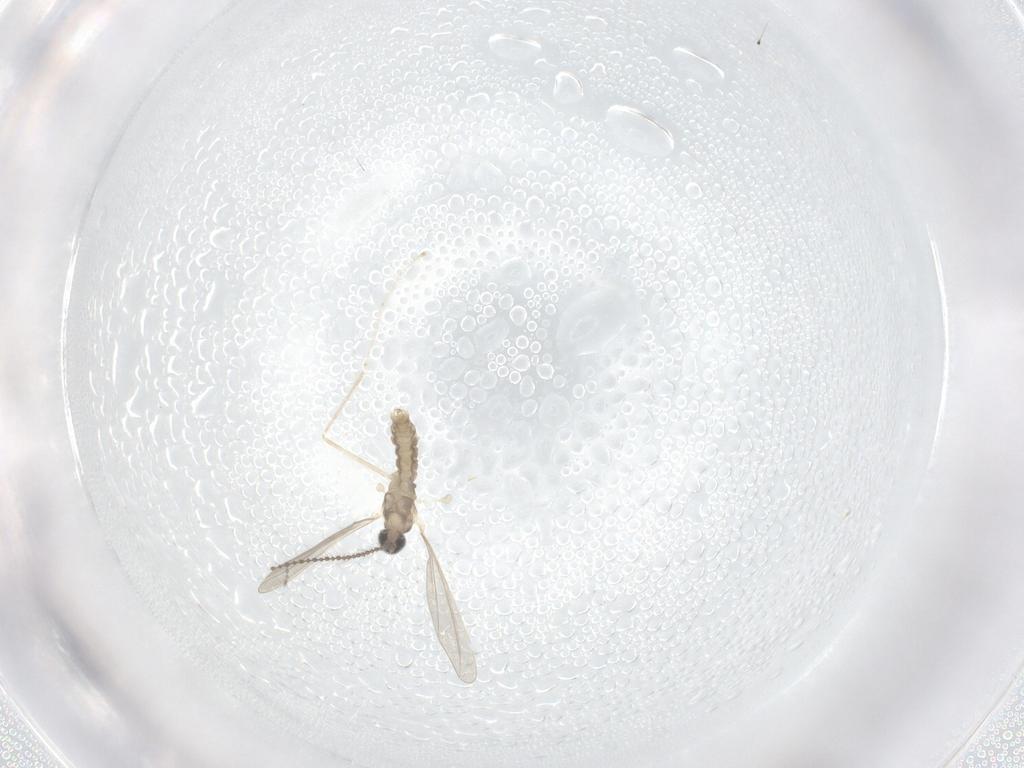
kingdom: Animalia
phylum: Arthropoda
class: Insecta
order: Diptera
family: Cecidomyiidae
